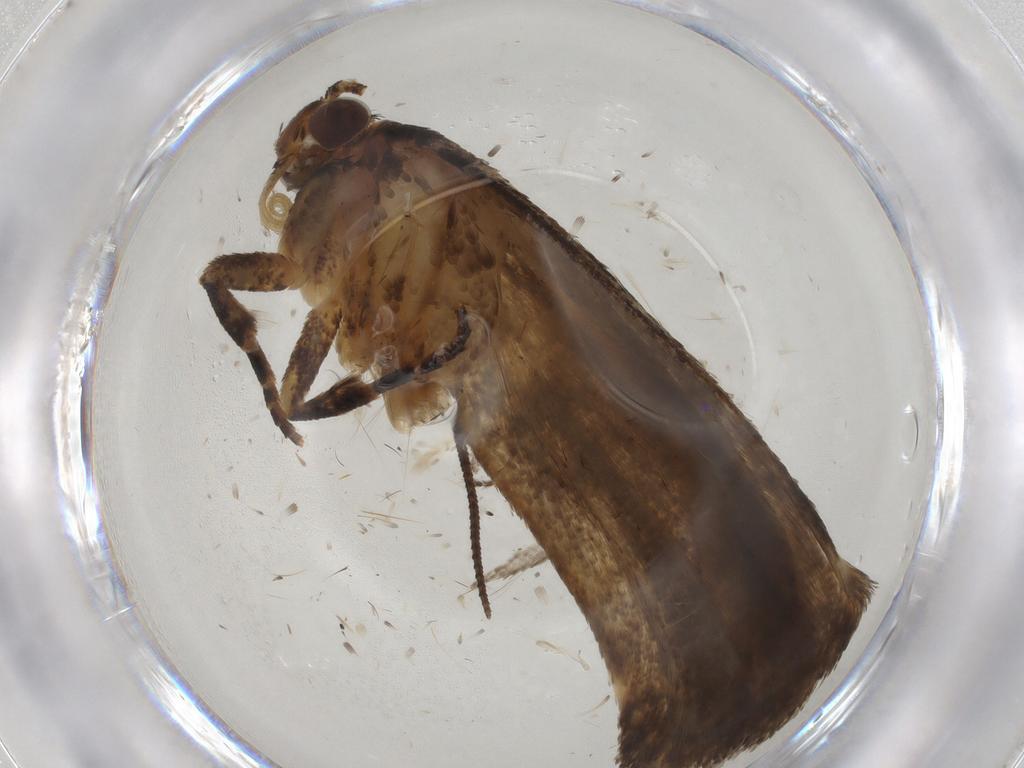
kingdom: Animalia
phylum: Arthropoda
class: Insecta
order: Lepidoptera
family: Gelechiidae
